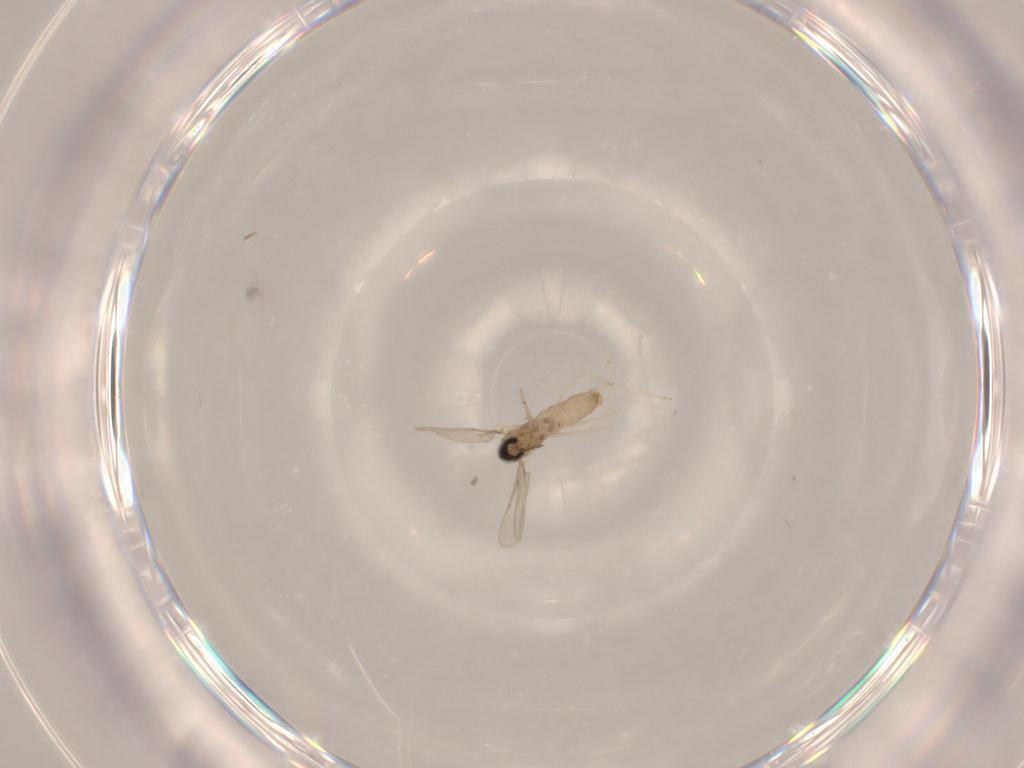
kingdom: Animalia
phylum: Arthropoda
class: Insecta
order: Diptera
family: Cecidomyiidae
